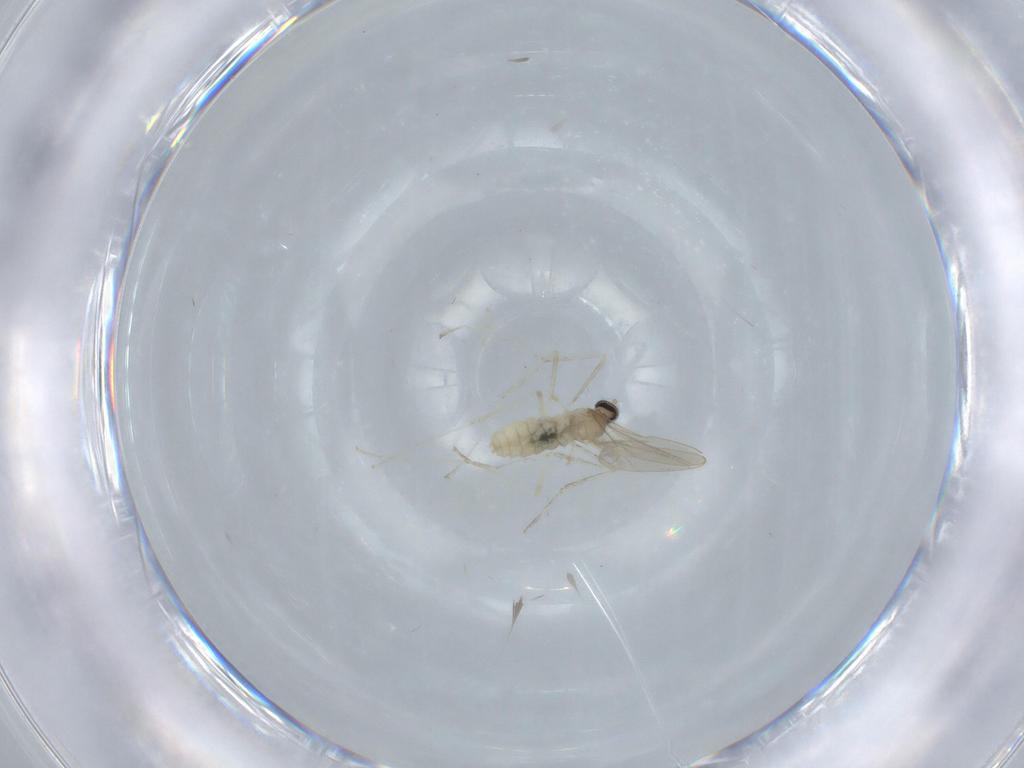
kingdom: Animalia
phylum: Arthropoda
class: Insecta
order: Diptera
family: Cecidomyiidae
